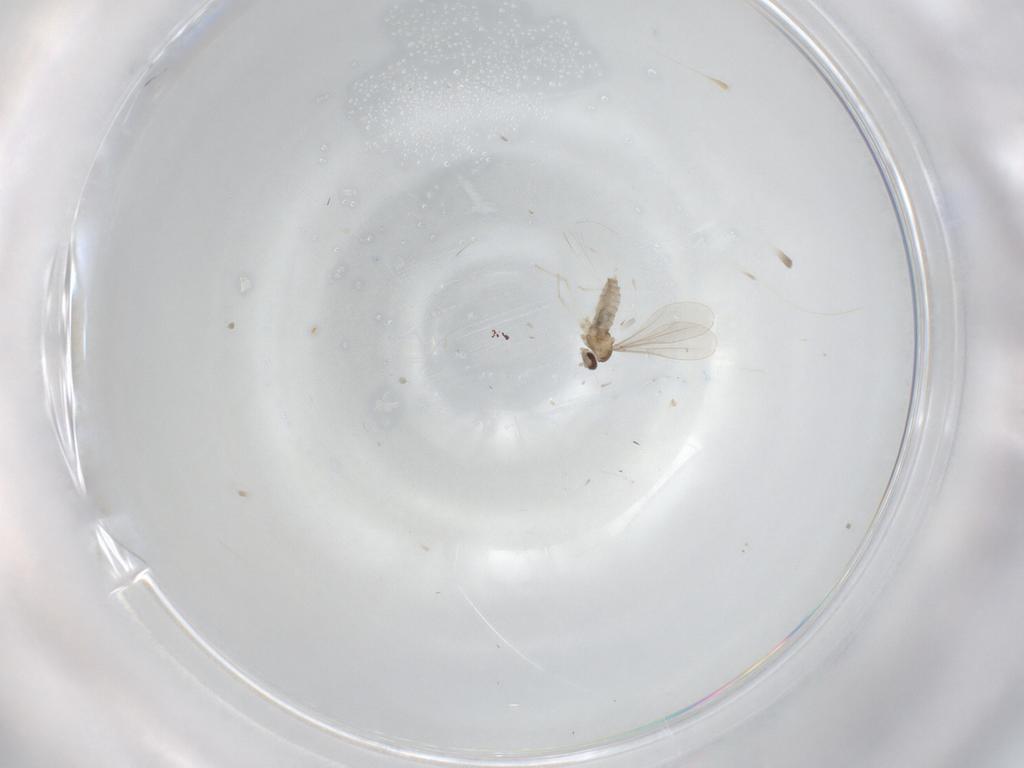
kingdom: Animalia
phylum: Arthropoda
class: Insecta
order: Diptera
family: Cecidomyiidae
